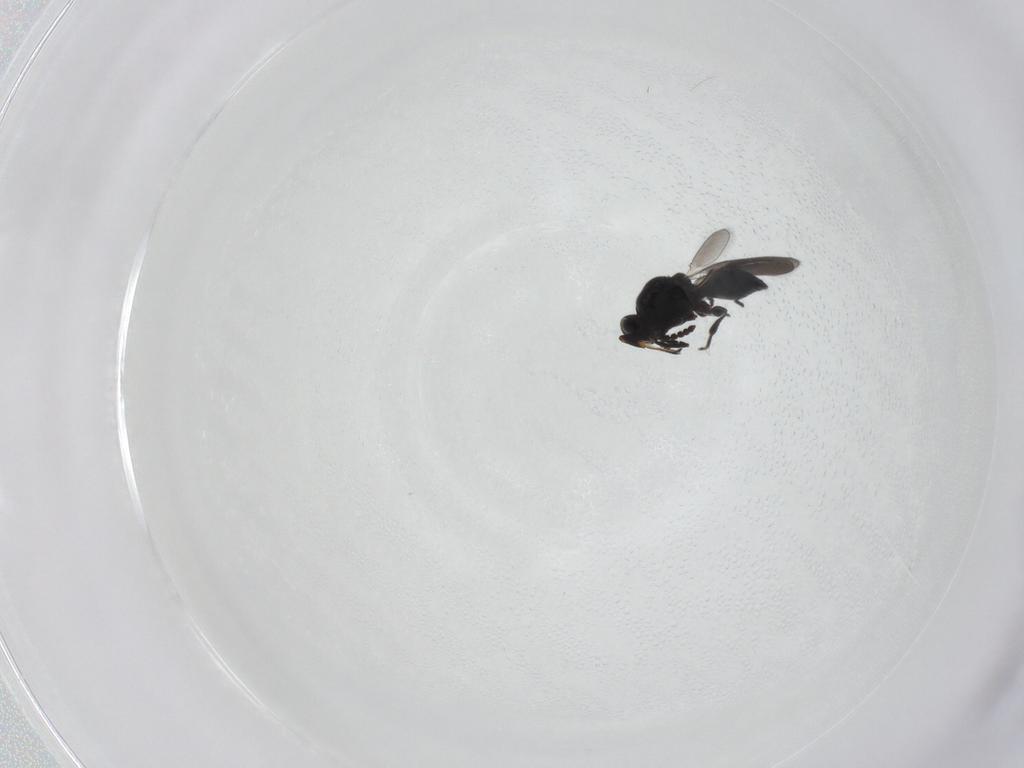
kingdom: Animalia
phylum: Arthropoda
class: Insecta
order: Hymenoptera
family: Platygastridae
